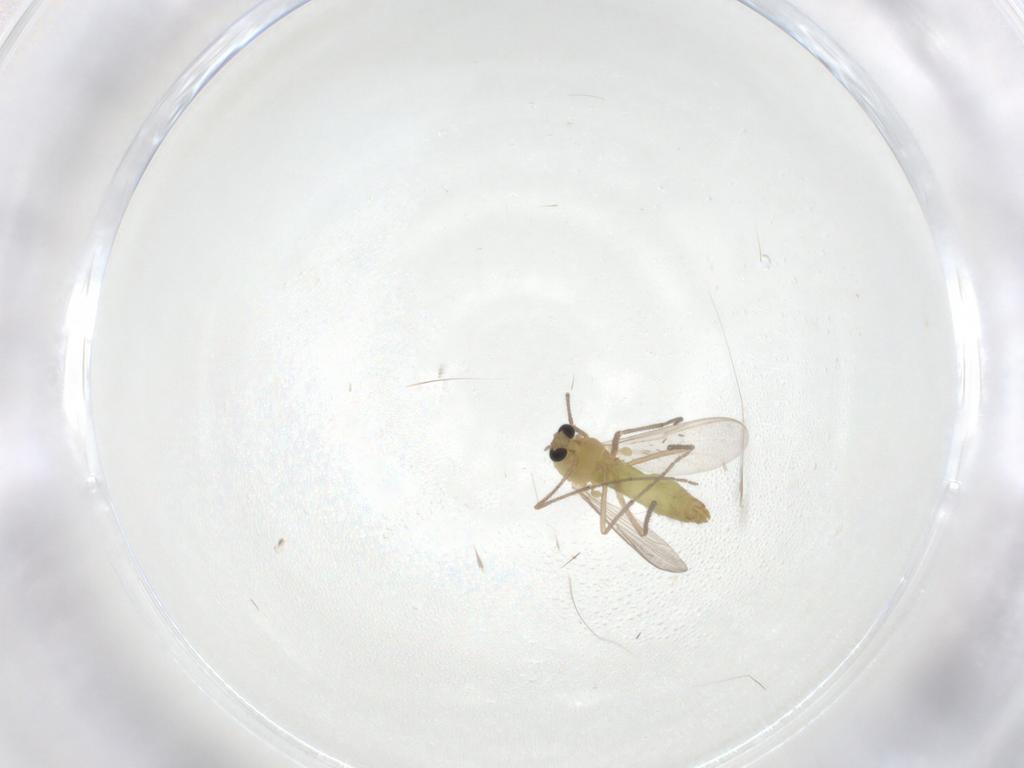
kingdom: Animalia
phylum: Arthropoda
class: Insecta
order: Diptera
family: Chironomidae
